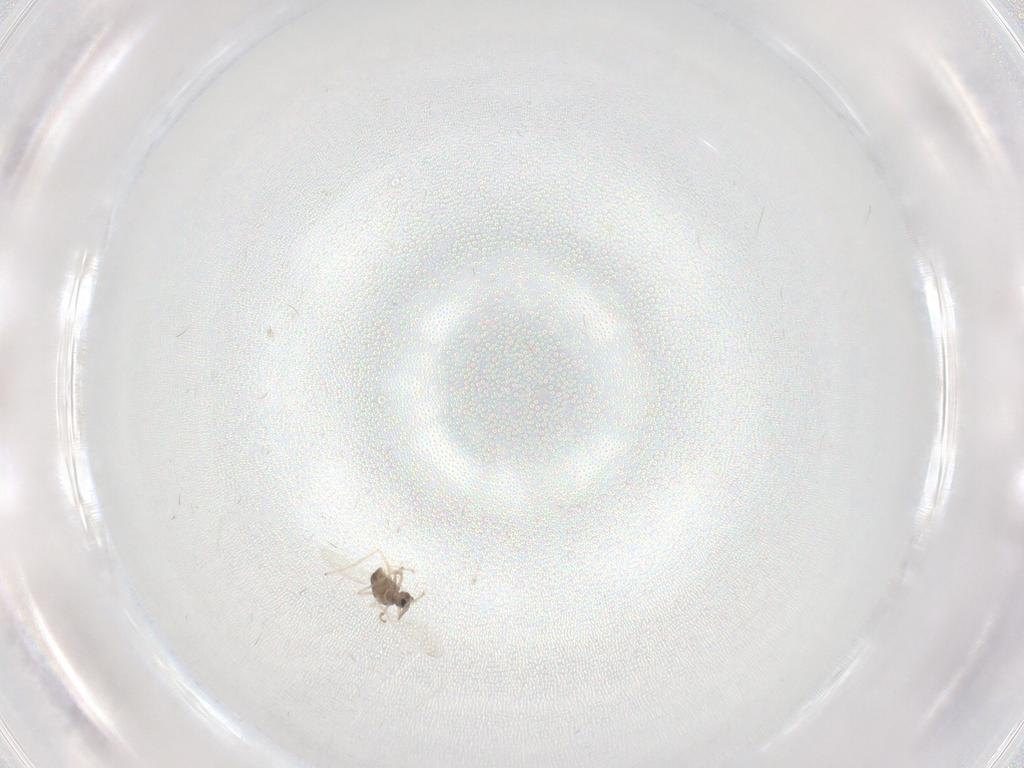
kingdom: Animalia
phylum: Arthropoda
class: Insecta
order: Diptera
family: Cecidomyiidae
